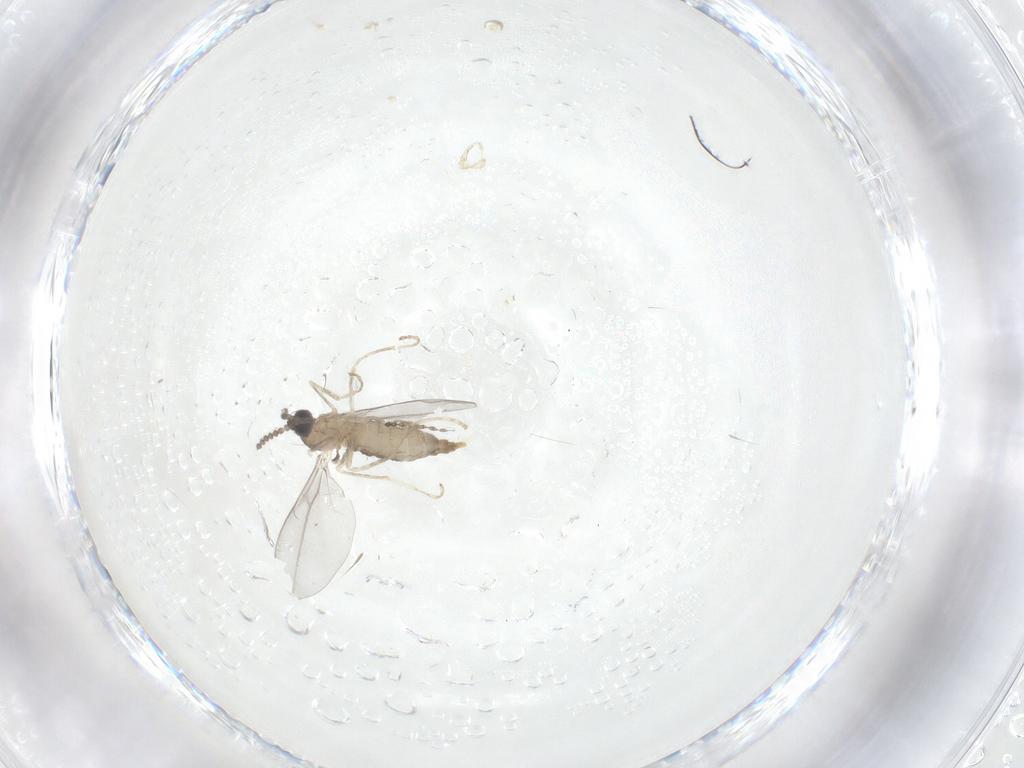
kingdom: Animalia
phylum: Arthropoda
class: Insecta
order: Diptera
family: Cecidomyiidae
